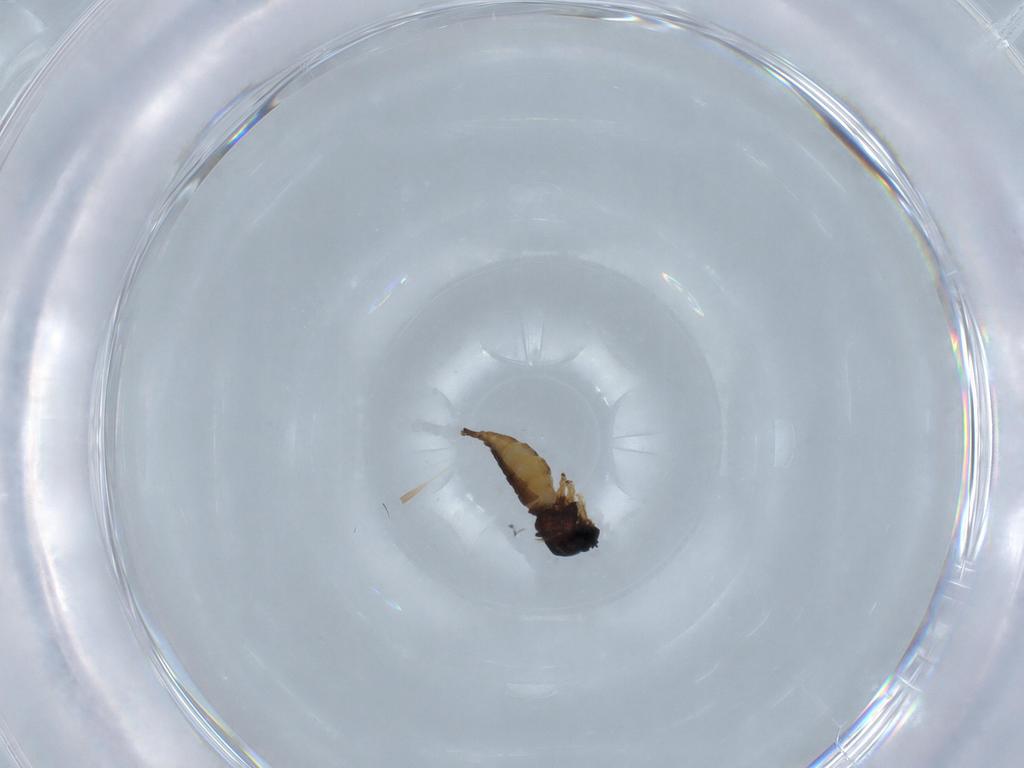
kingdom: Animalia
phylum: Arthropoda
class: Insecta
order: Diptera
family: Sciaridae
